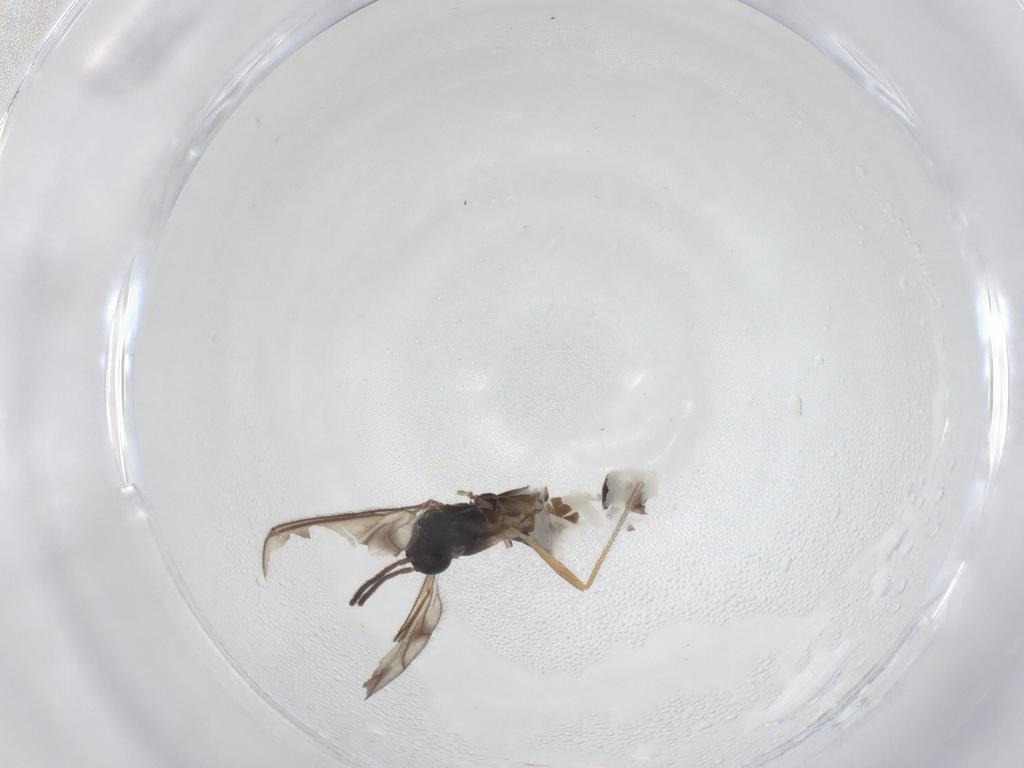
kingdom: Animalia
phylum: Arthropoda
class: Insecta
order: Diptera
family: Sciaridae
